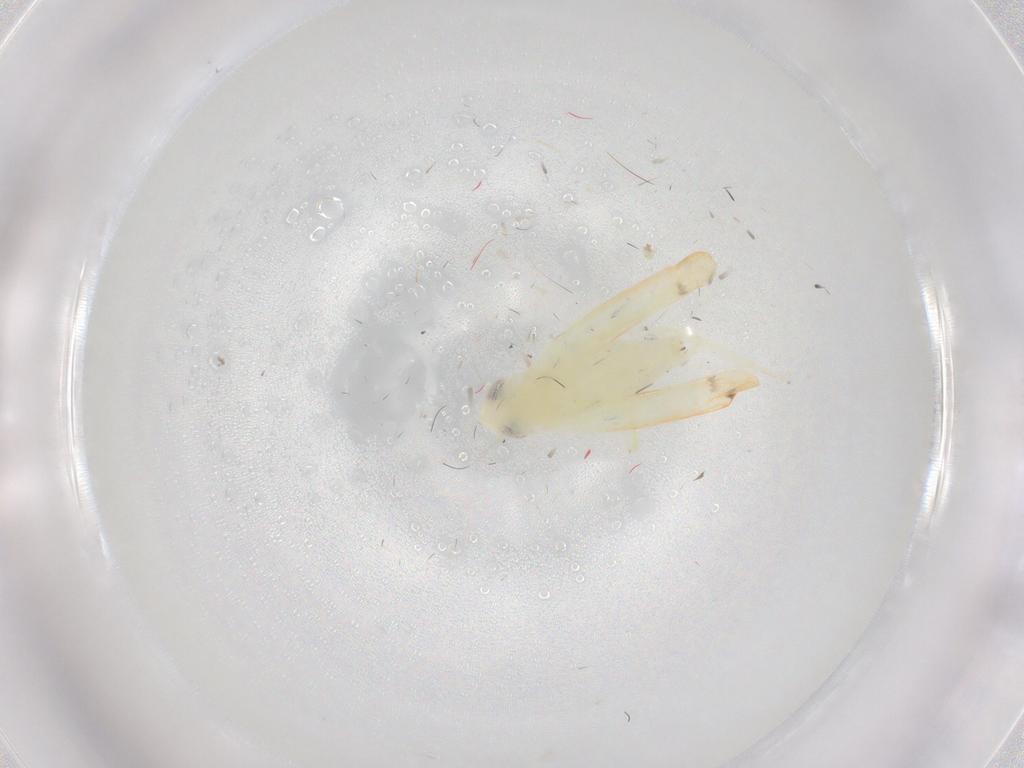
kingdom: Animalia
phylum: Arthropoda
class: Insecta
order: Hemiptera
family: Cicadellidae
